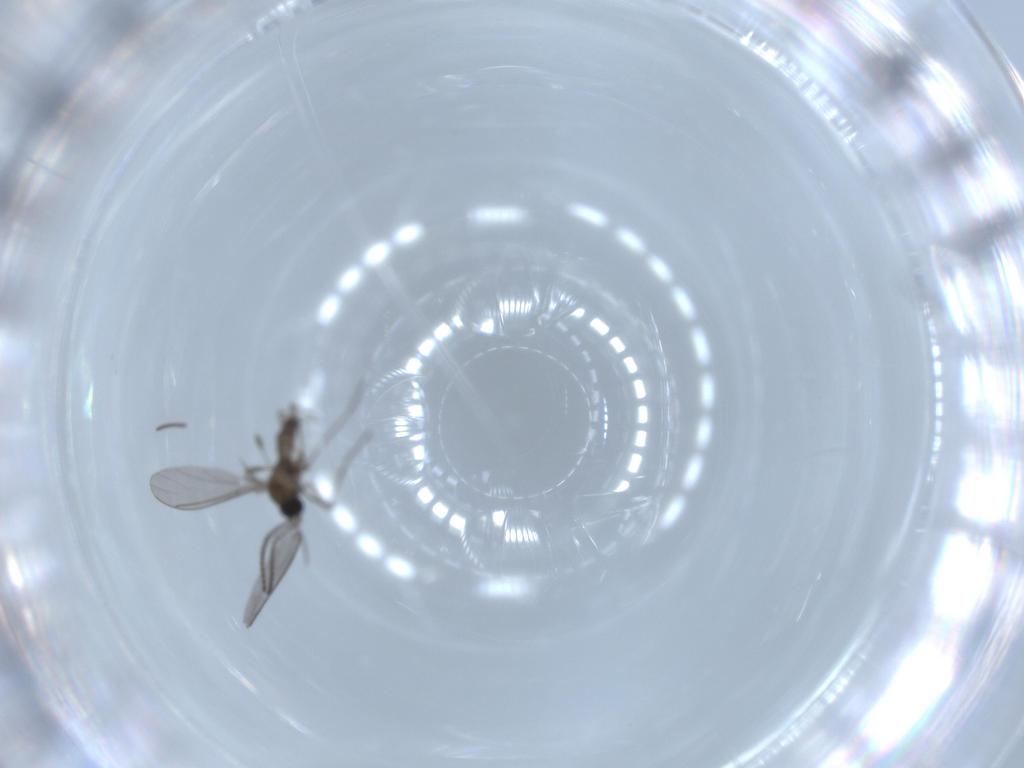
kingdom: Animalia
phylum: Arthropoda
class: Insecta
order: Diptera
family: Sciaridae
